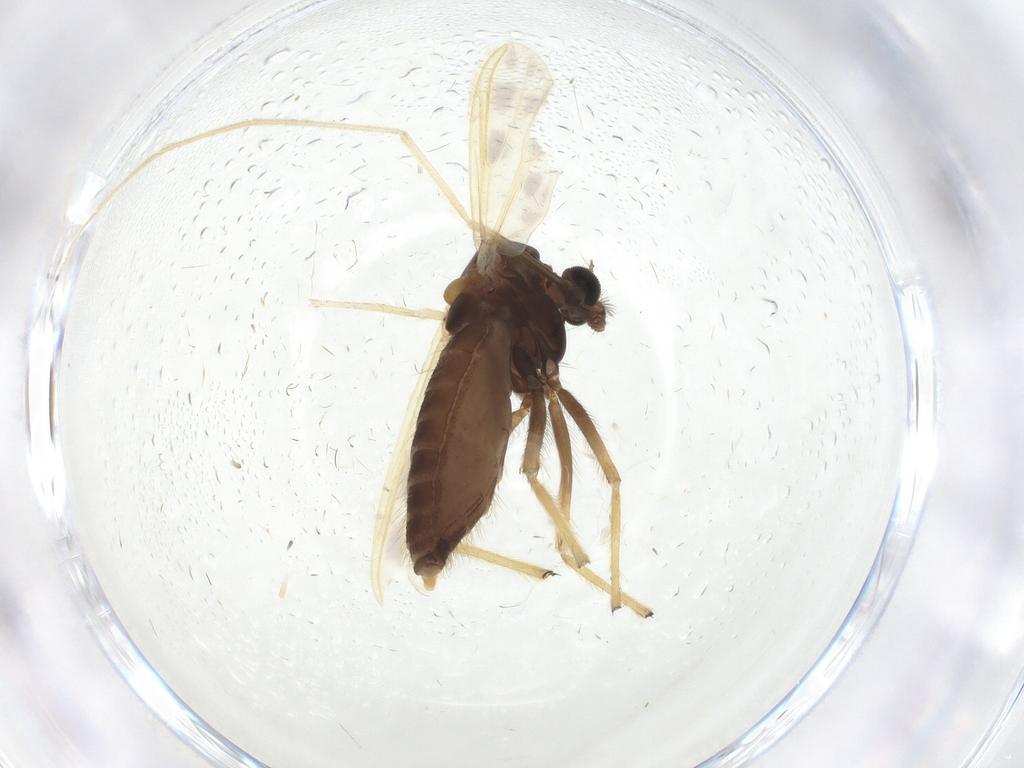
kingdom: Animalia
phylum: Arthropoda
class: Insecta
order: Diptera
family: Chironomidae
